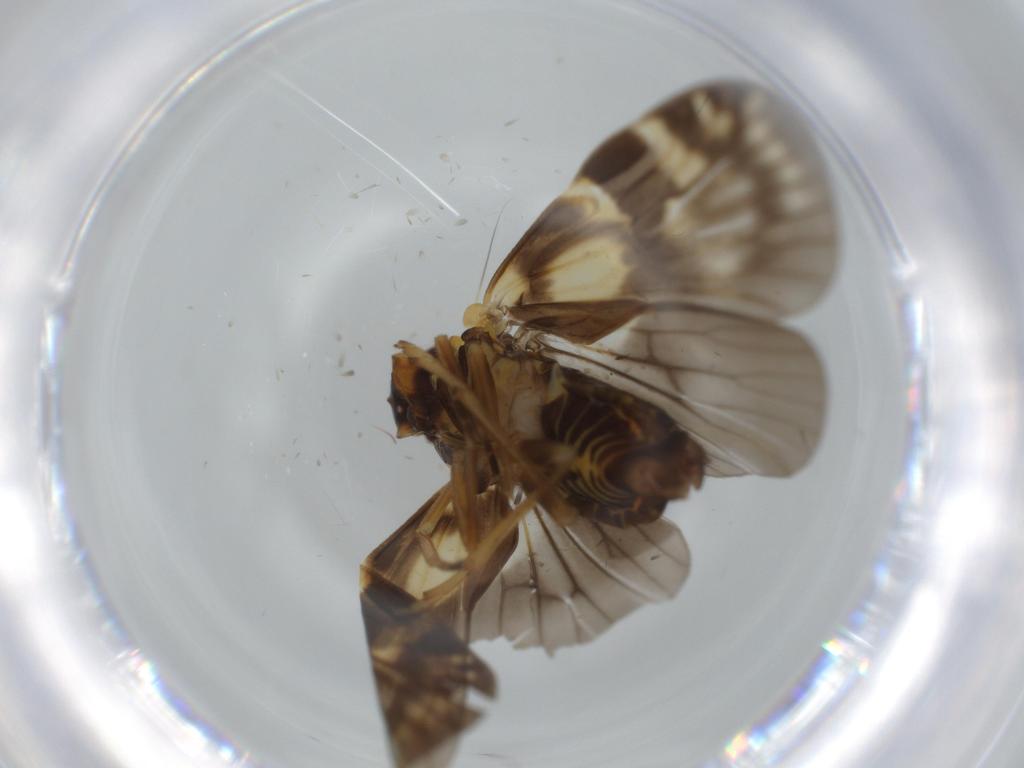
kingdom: Animalia
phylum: Arthropoda
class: Insecta
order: Hemiptera
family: Cixiidae
